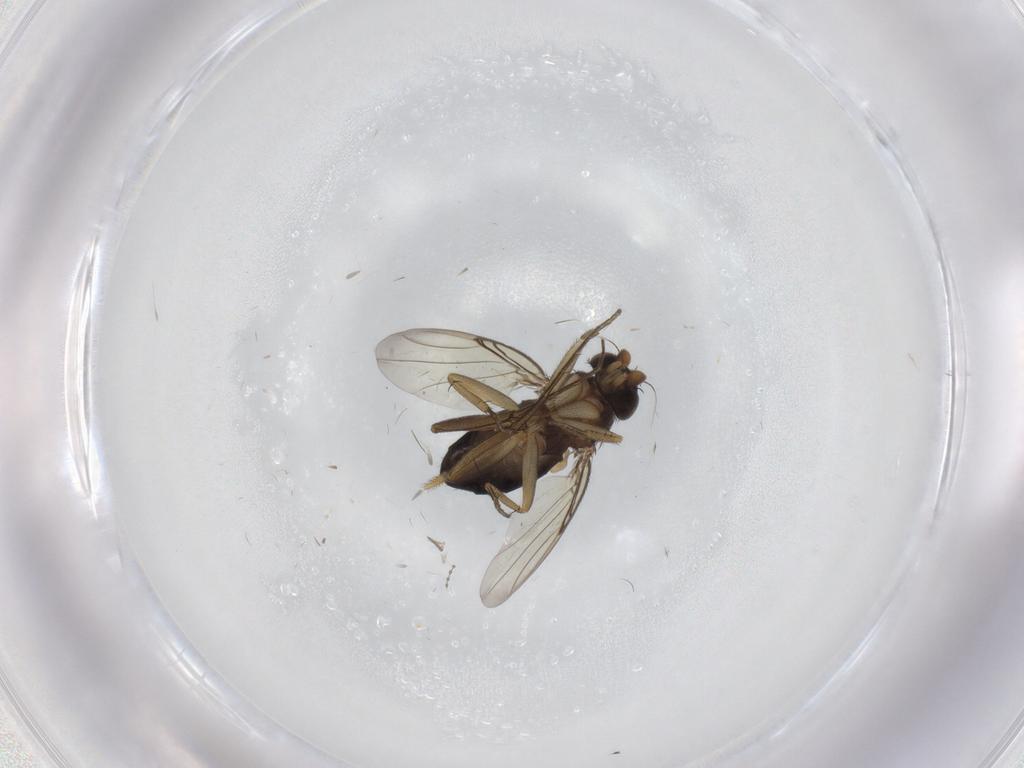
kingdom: Animalia
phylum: Arthropoda
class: Insecta
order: Diptera
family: Phoridae
